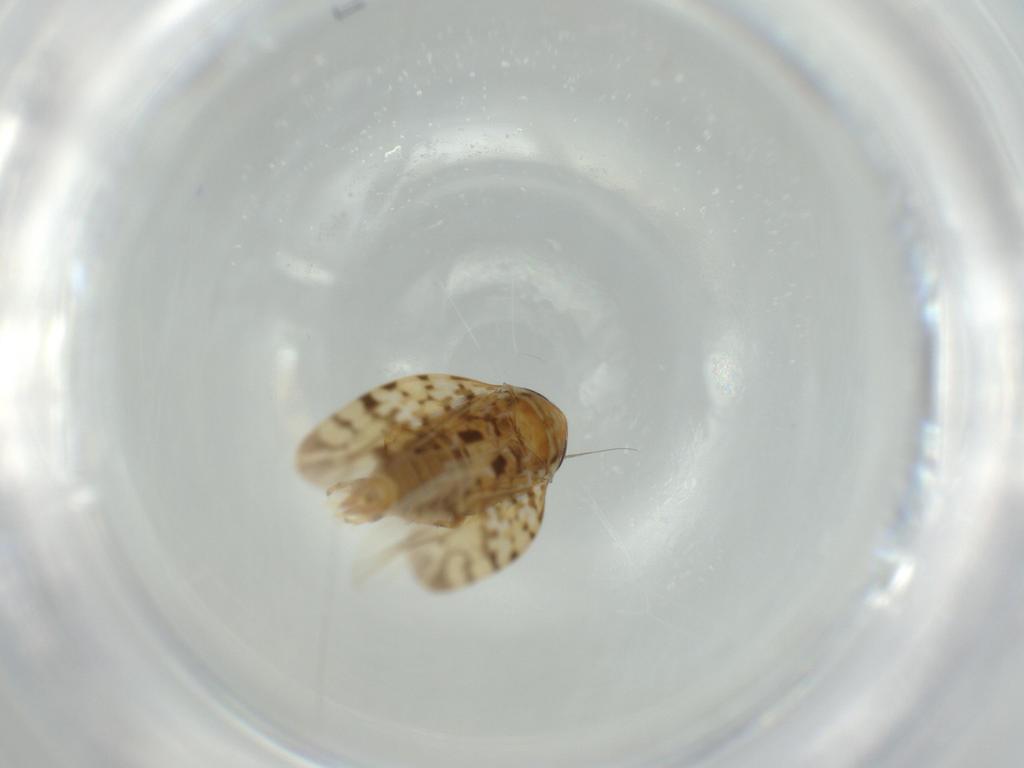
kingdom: Animalia
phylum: Arthropoda
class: Insecta
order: Hemiptera
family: Cicadellidae
